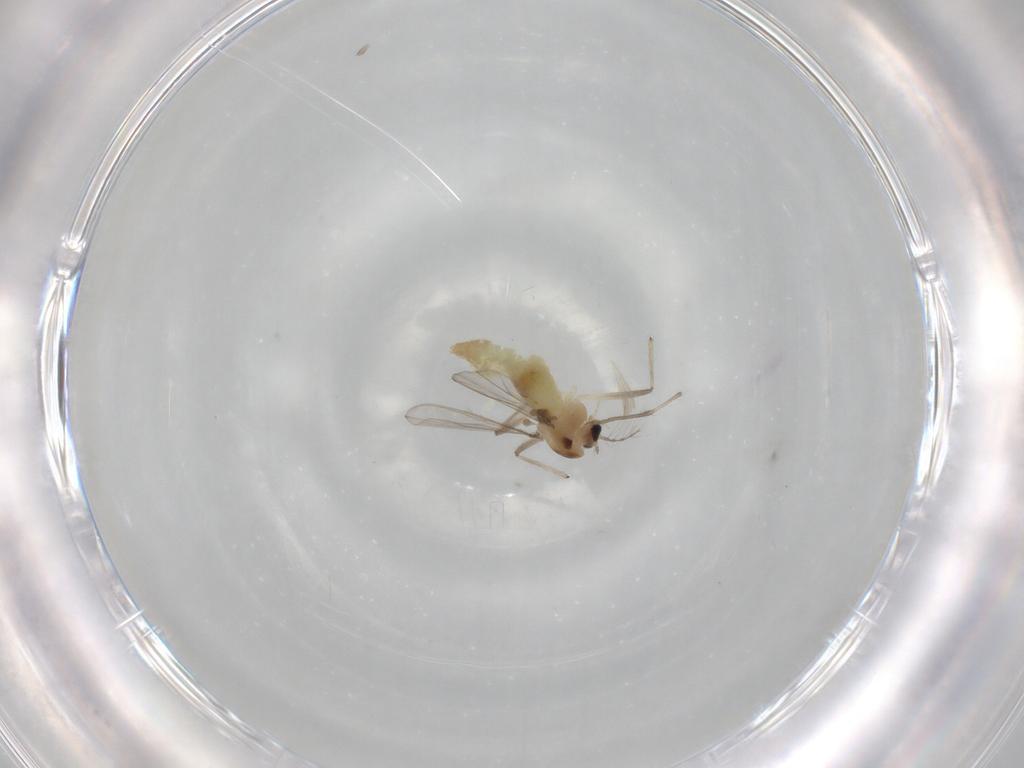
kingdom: Animalia
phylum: Arthropoda
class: Insecta
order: Diptera
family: Chironomidae
